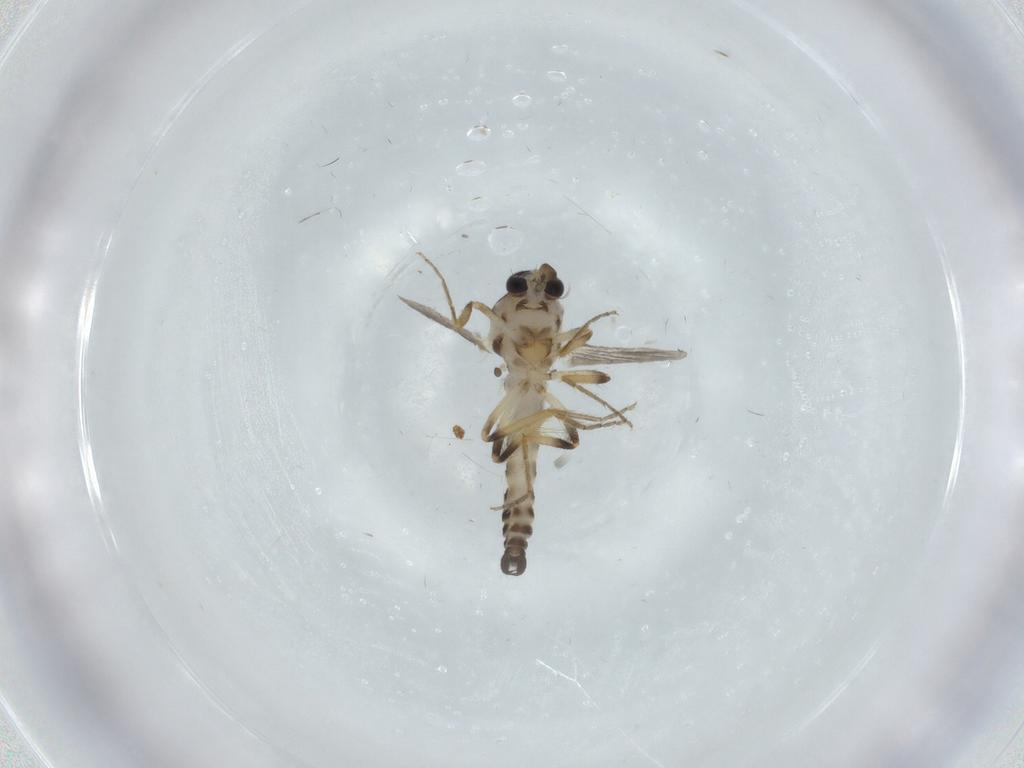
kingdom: Animalia
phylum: Arthropoda
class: Insecta
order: Diptera
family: Ceratopogonidae
